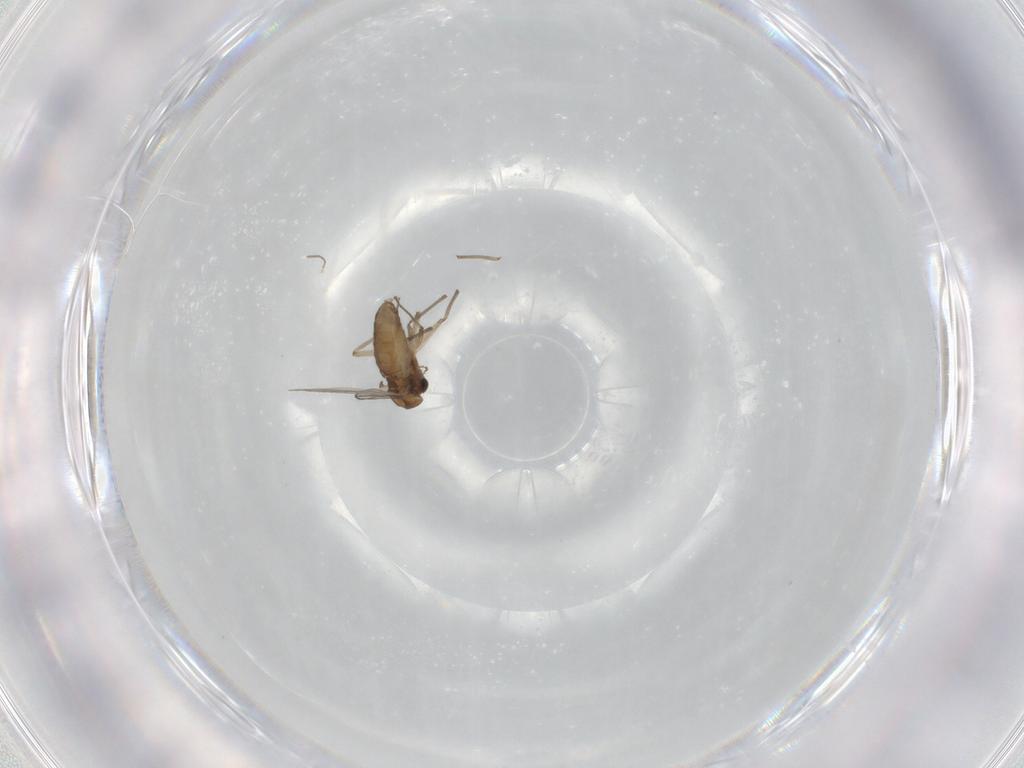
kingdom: Animalia
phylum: Arthropoda
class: Insecta
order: Diptera
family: Chironomidae
